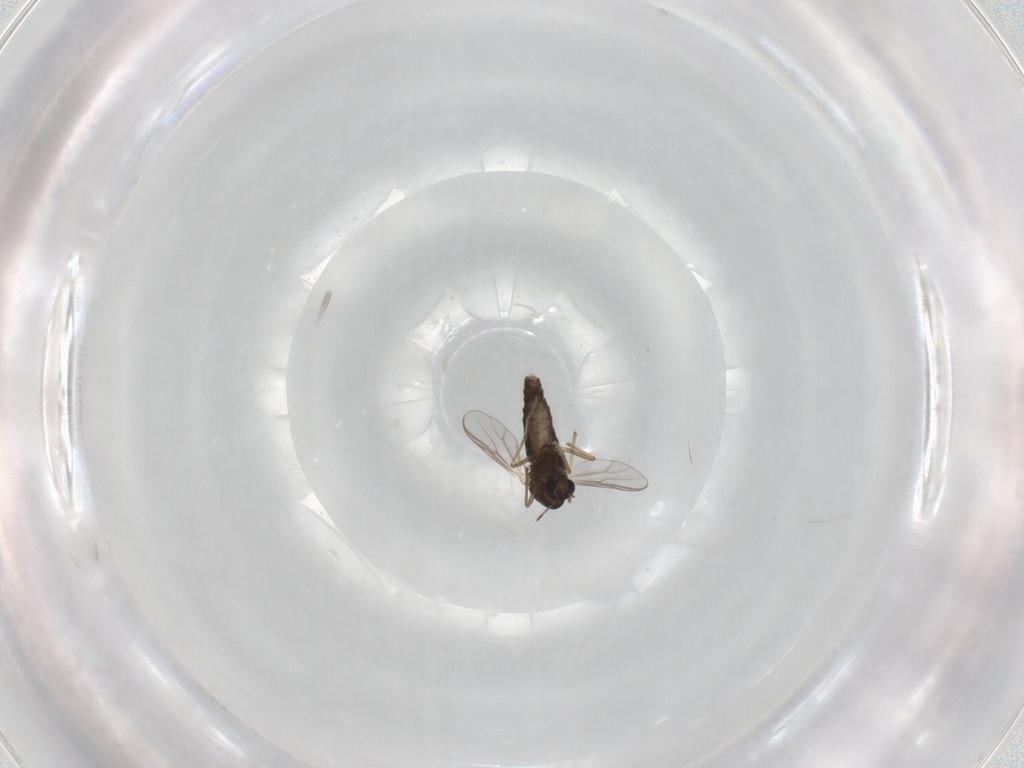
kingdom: Animalia
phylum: Arthropoda
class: Insecta
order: Diptera
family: Chironomidae
